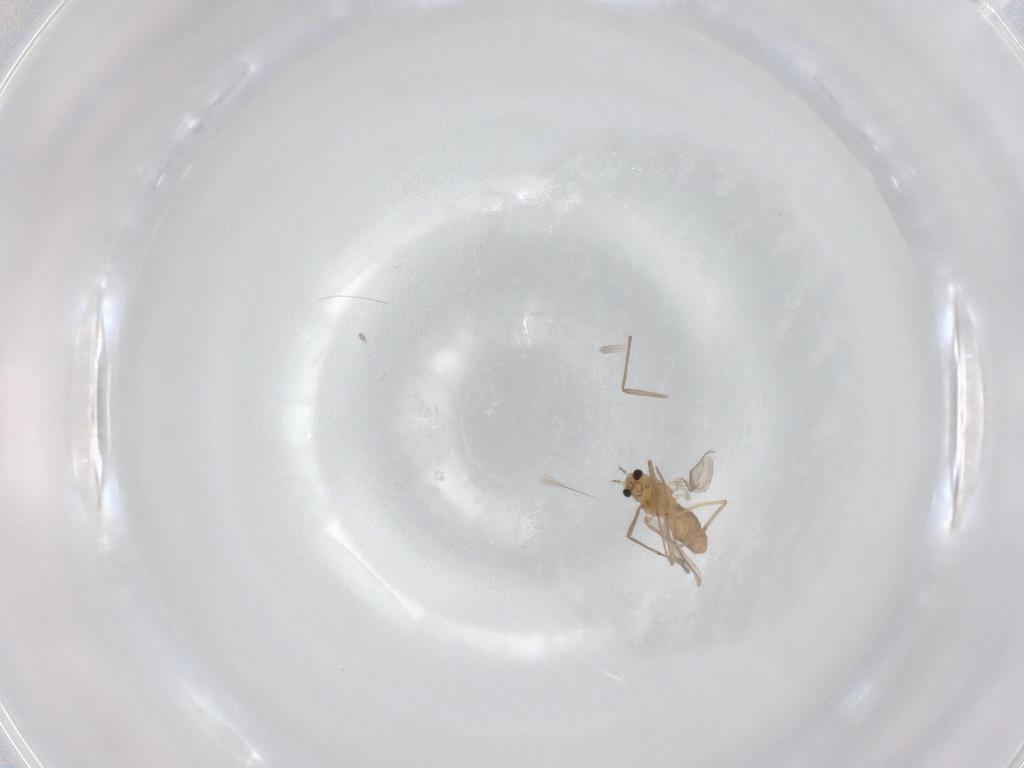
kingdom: Animalia
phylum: Arthropoda
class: Insecta
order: Diptera
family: Chironomidae
